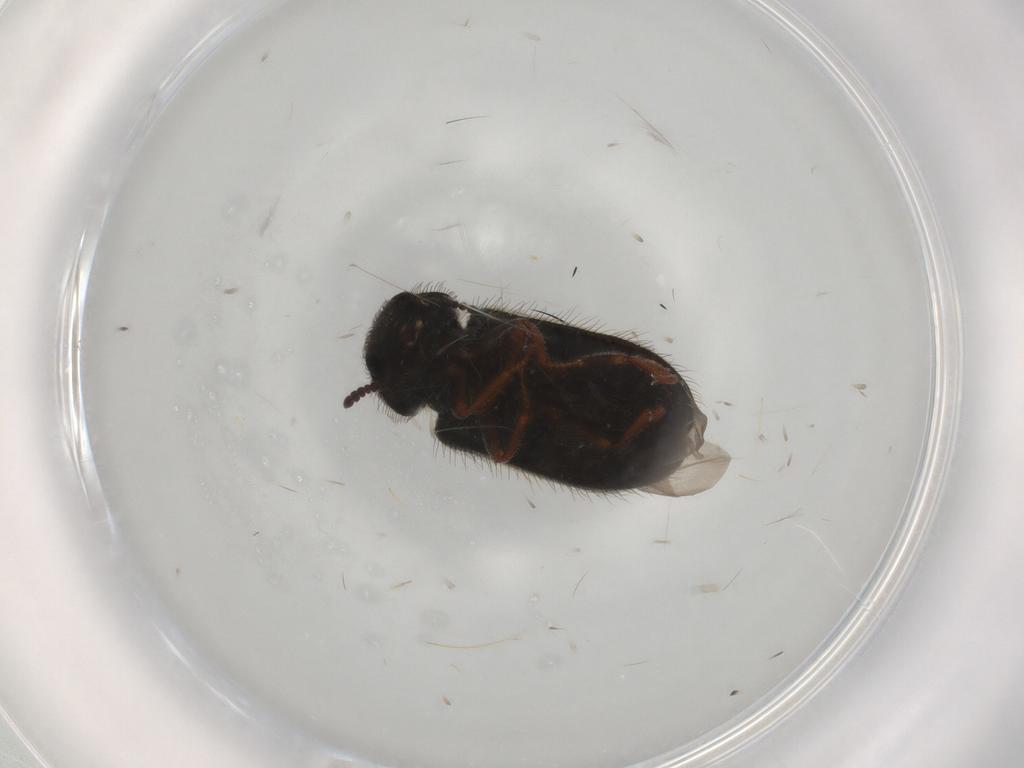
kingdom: Animalia
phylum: Arthropoda
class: Insecta
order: Coleoptera
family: Melyridae
